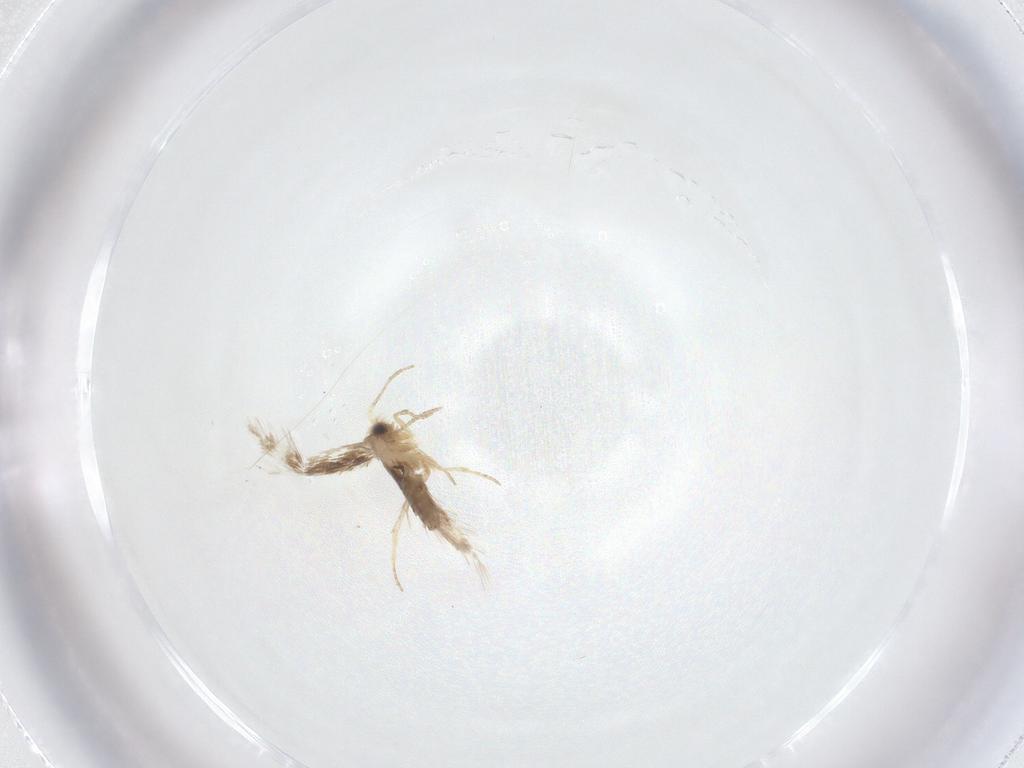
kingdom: Animalia
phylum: Arthropoda
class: Insecta
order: Lepidoptera
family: Nepticulidae
